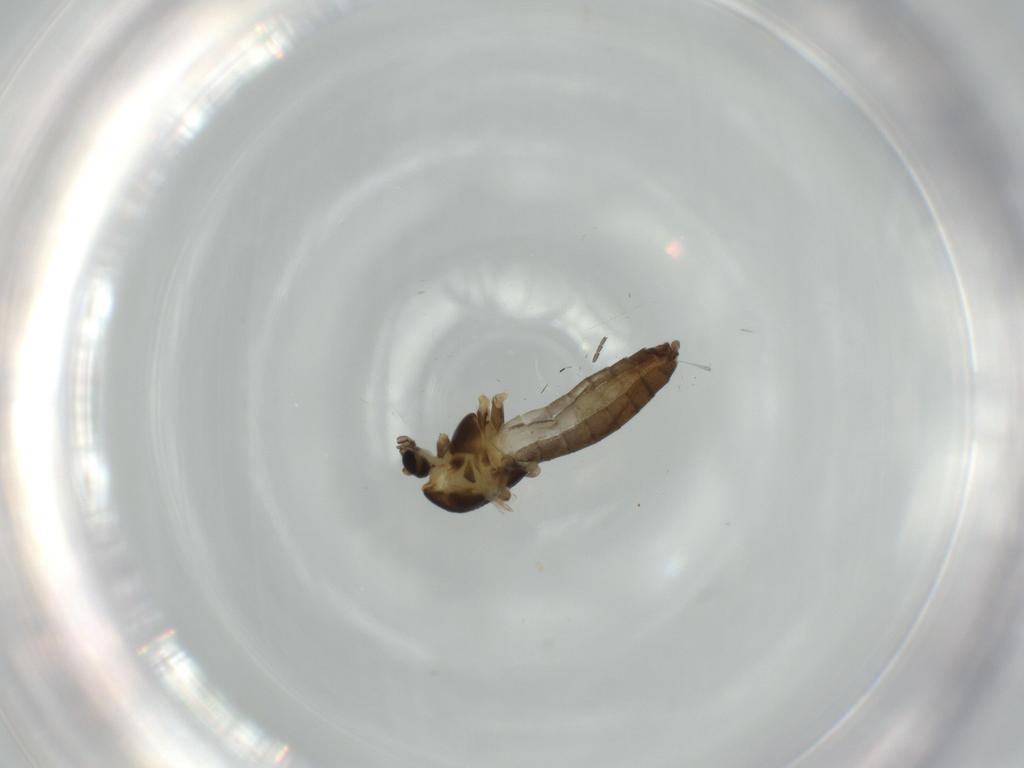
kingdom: Animalia
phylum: Arthropoda
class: Insecta
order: Diptera
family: Chironomidae
